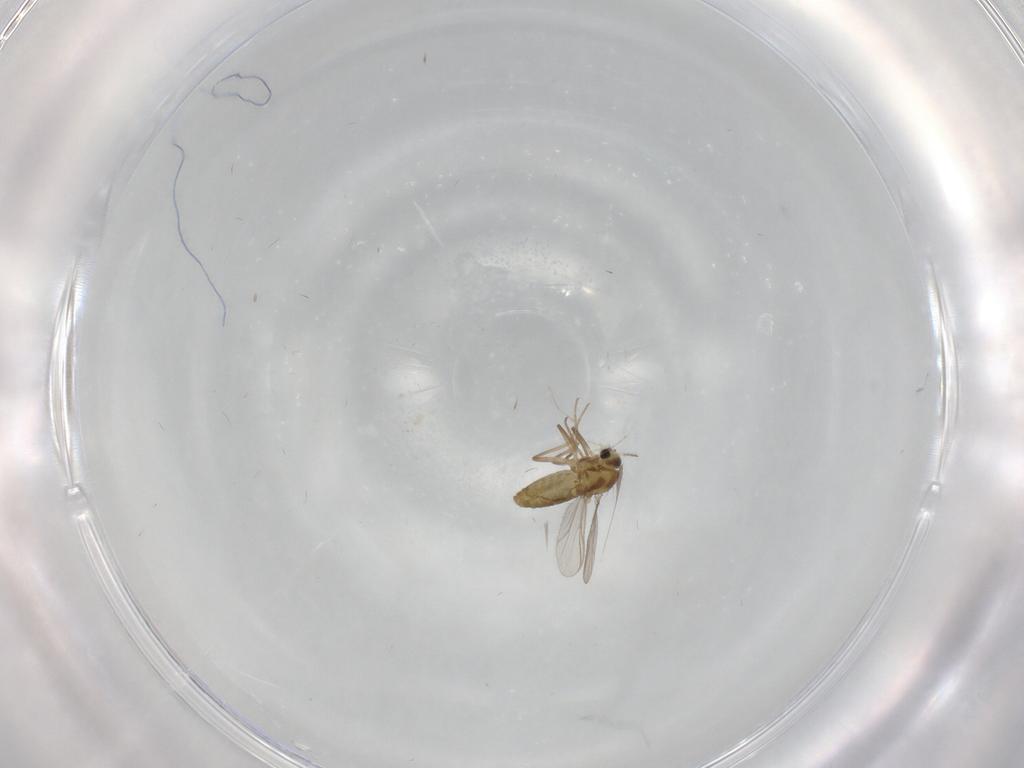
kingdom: Animalia
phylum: Arthropoda
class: Insecta
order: Diptera
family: Chironomidae
